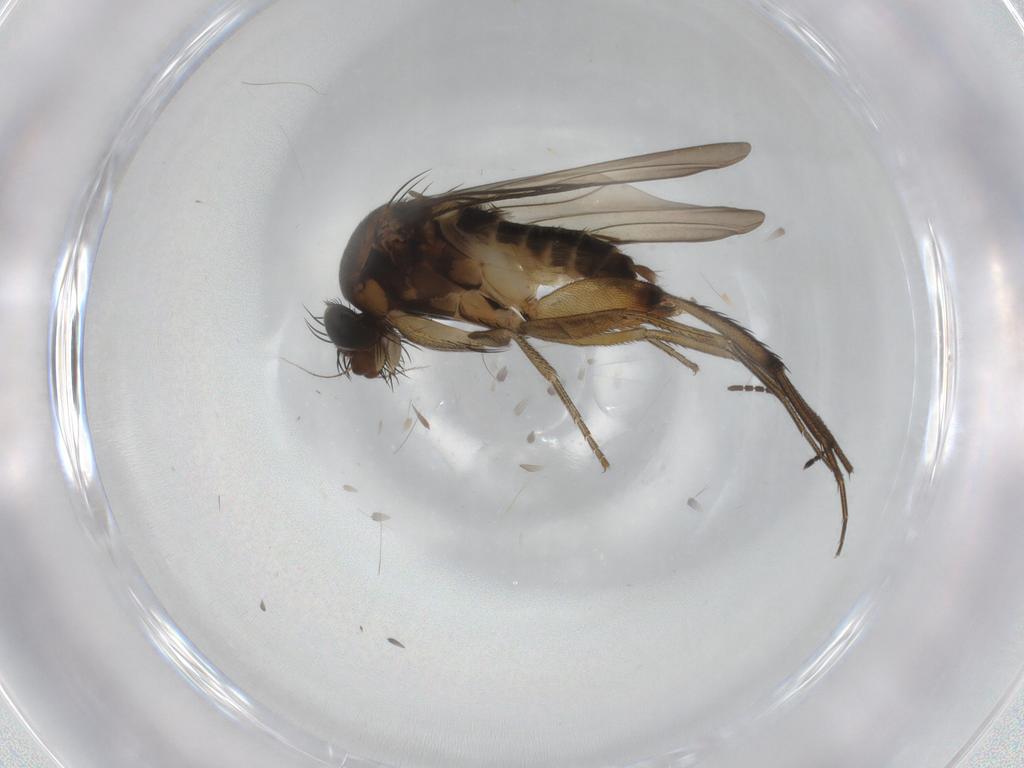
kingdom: Animalia
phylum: Arthropoda
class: Insecta
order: Diptera
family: Phoridae
